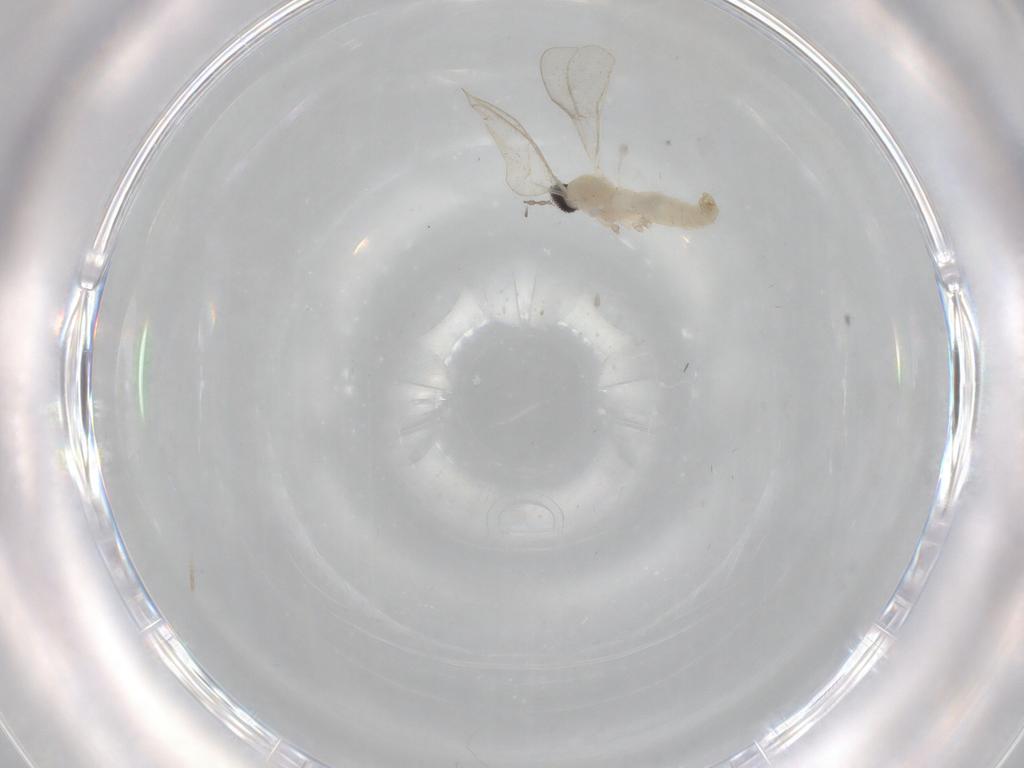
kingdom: Animalia
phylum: Arthropoda
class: Insecta
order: Diptera
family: Cecidomyiidae
